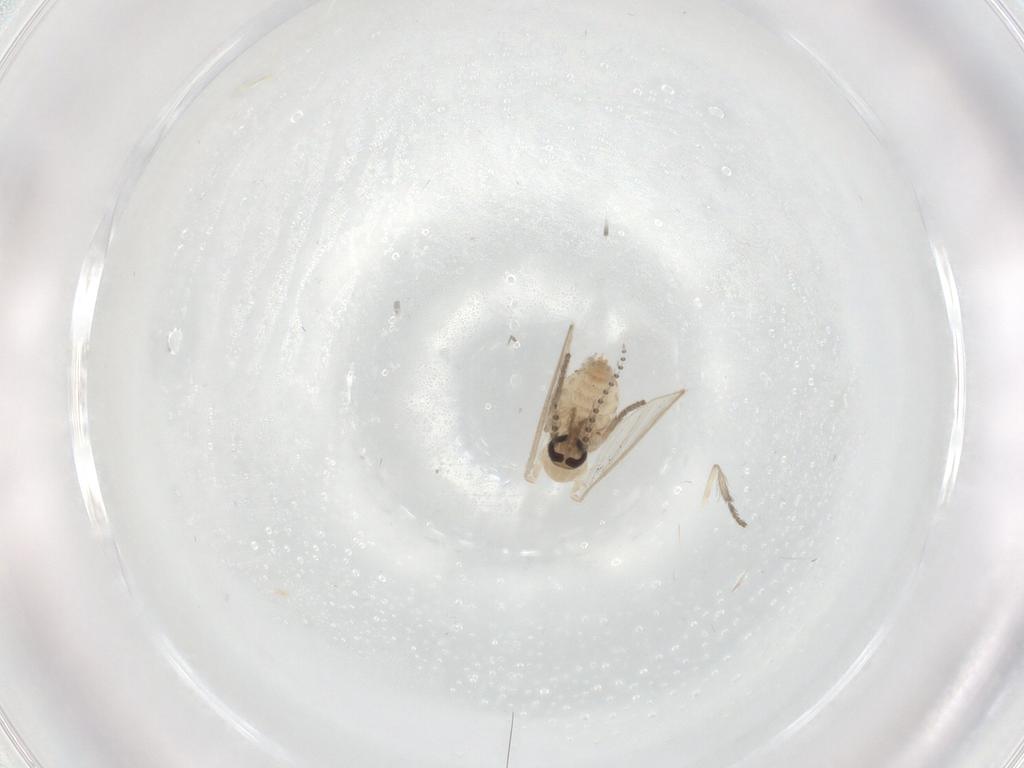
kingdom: Animalia
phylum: Arthropoda
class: Insecta
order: Diptera
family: Psychodidae
